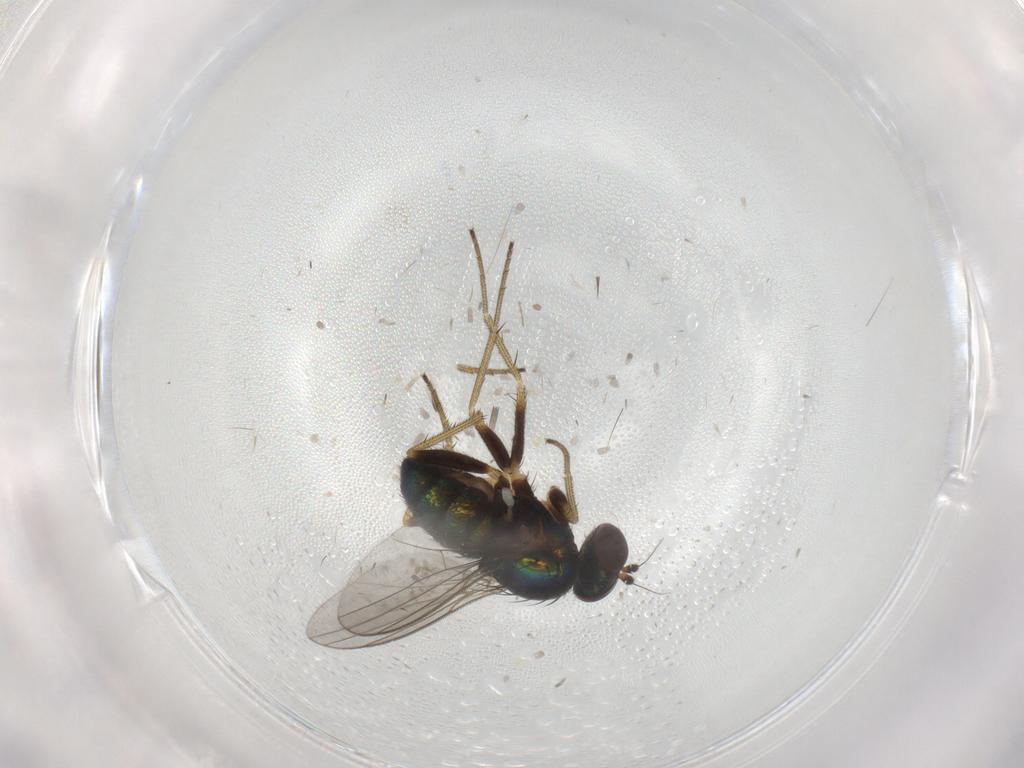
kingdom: Animalia
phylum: Arthropoda
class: Insecta
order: Diptera
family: Dolichopodidae
